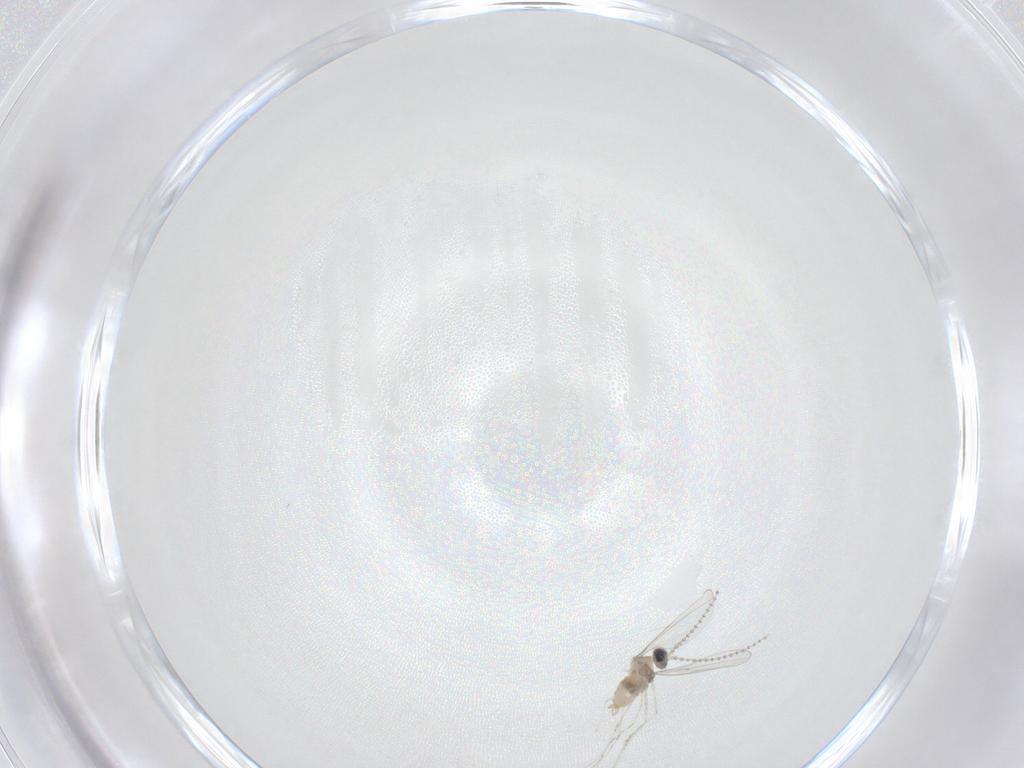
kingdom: Animalia
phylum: Arthropoda
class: Insecta
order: Diptera
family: Cecidomyiidae
